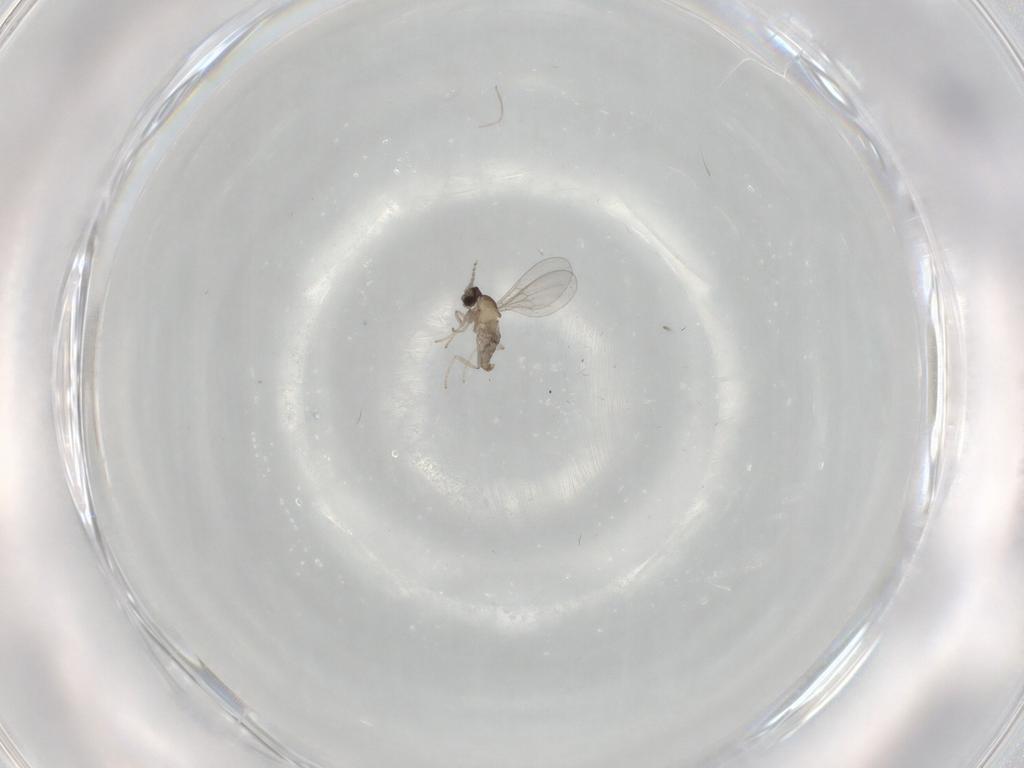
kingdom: Animalia
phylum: Arthropoda
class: Insecta
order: Diptera
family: Cecidomyiidae
